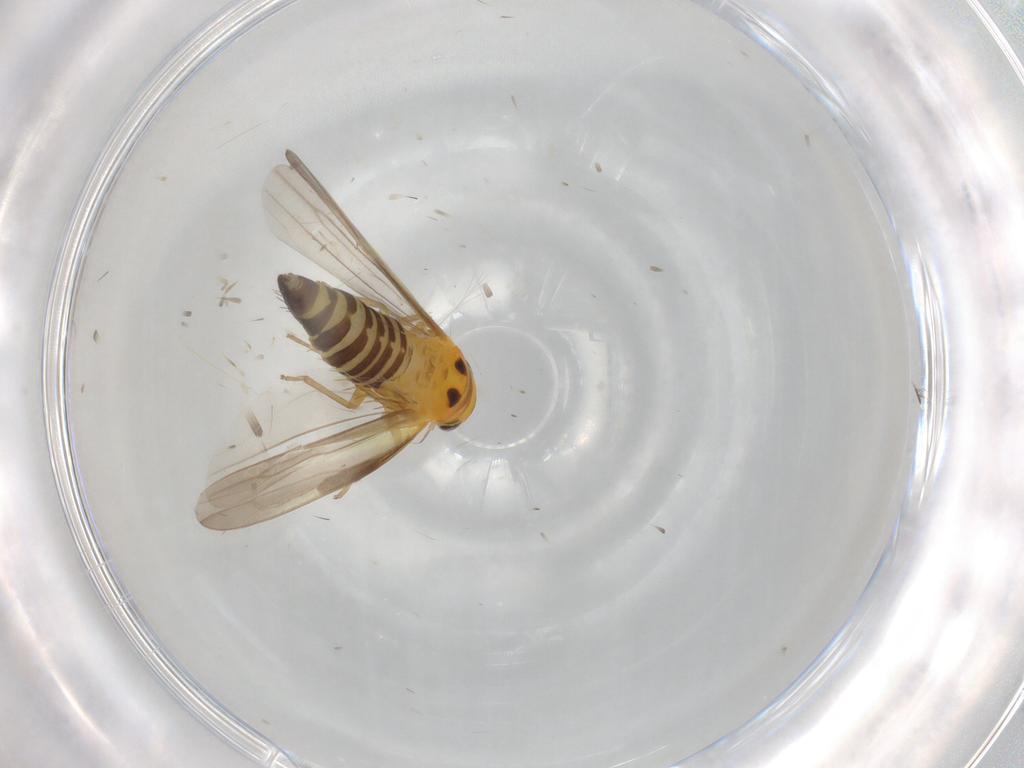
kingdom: Animalia
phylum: Arthropoda
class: Insecta
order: Hemiptera
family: Cicadellidae
